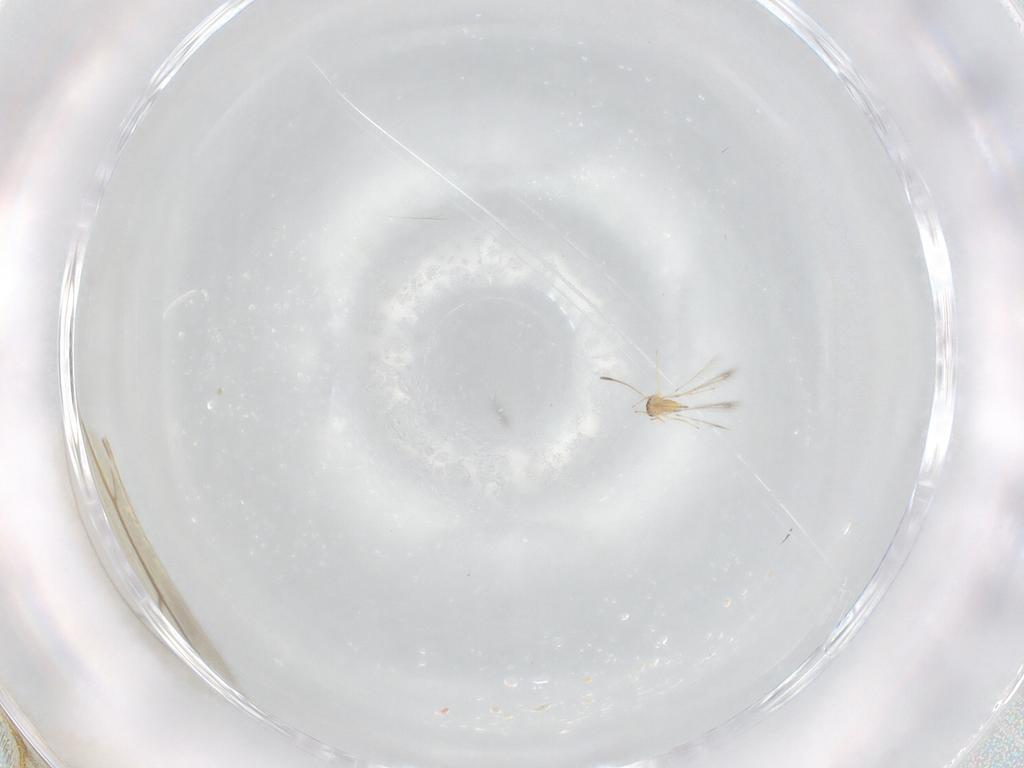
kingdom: Animalia
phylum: Arthropoda
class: Insecta
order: Hymenoptera
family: Mymaridae
